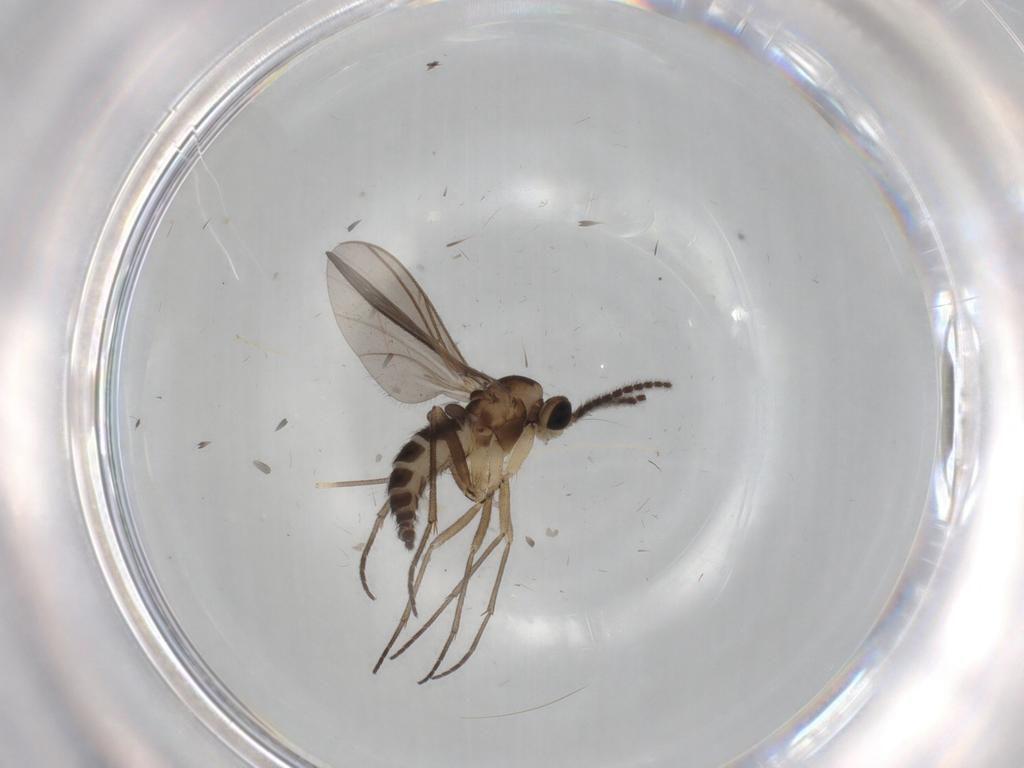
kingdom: Animalia
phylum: Arthropoda
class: Insecta
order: Diptera
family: Sciaridae
